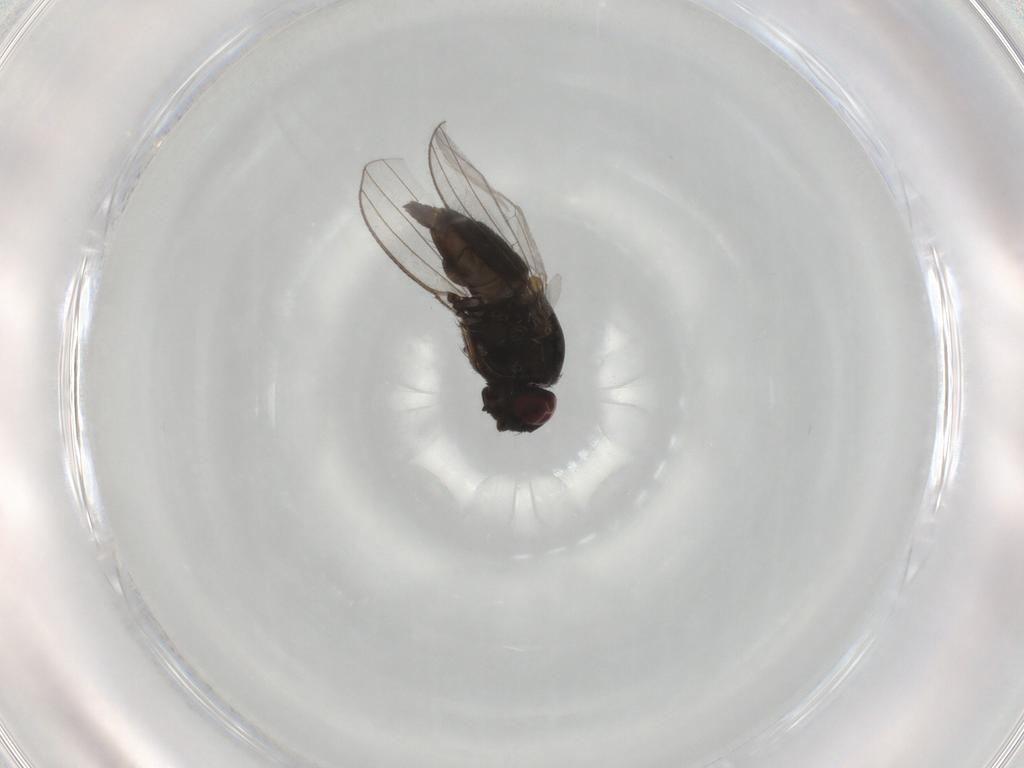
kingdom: Animalia
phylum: Arthropoda
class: Insecta
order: Diptera
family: Milichiidae
